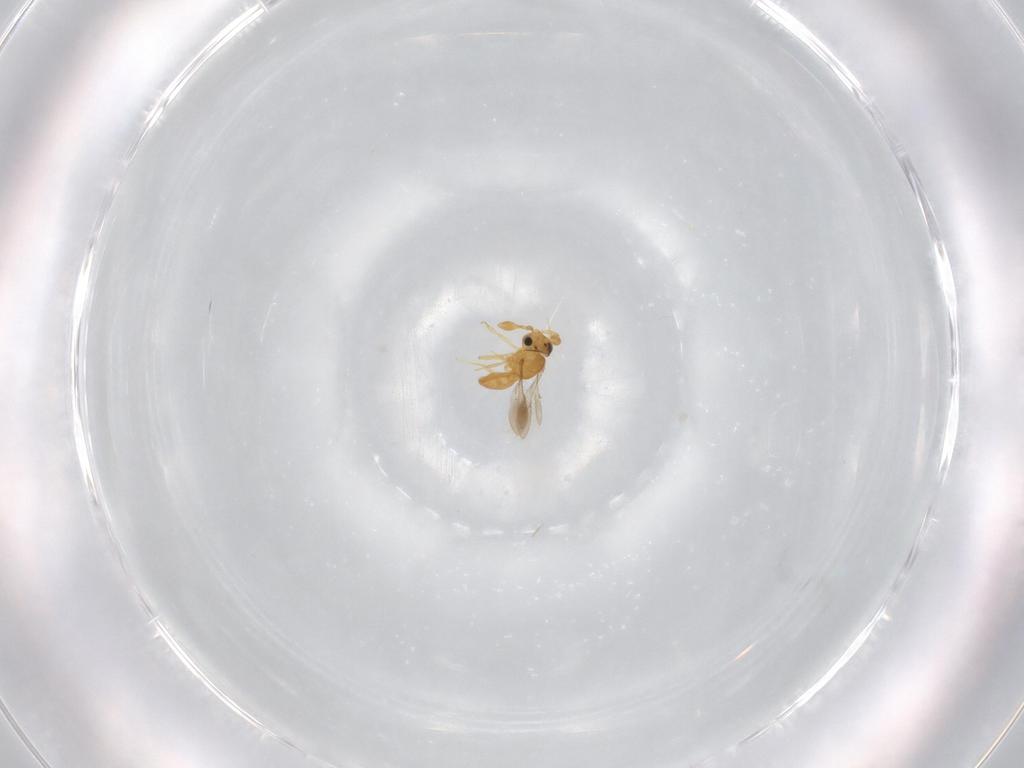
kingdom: Animalia
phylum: Arthropoda
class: Insecta
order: Hymenoptera
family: Scelionidae
